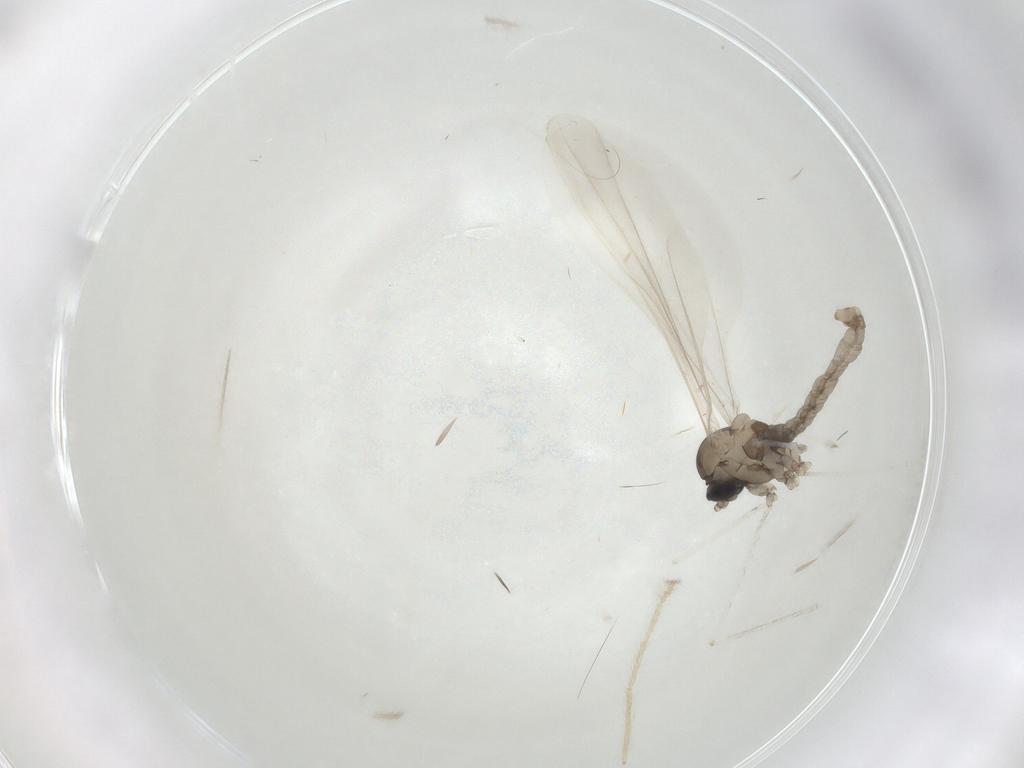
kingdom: Animalia
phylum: Arthropoda
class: Insecta
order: Diptera
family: Cecidomyiidae
